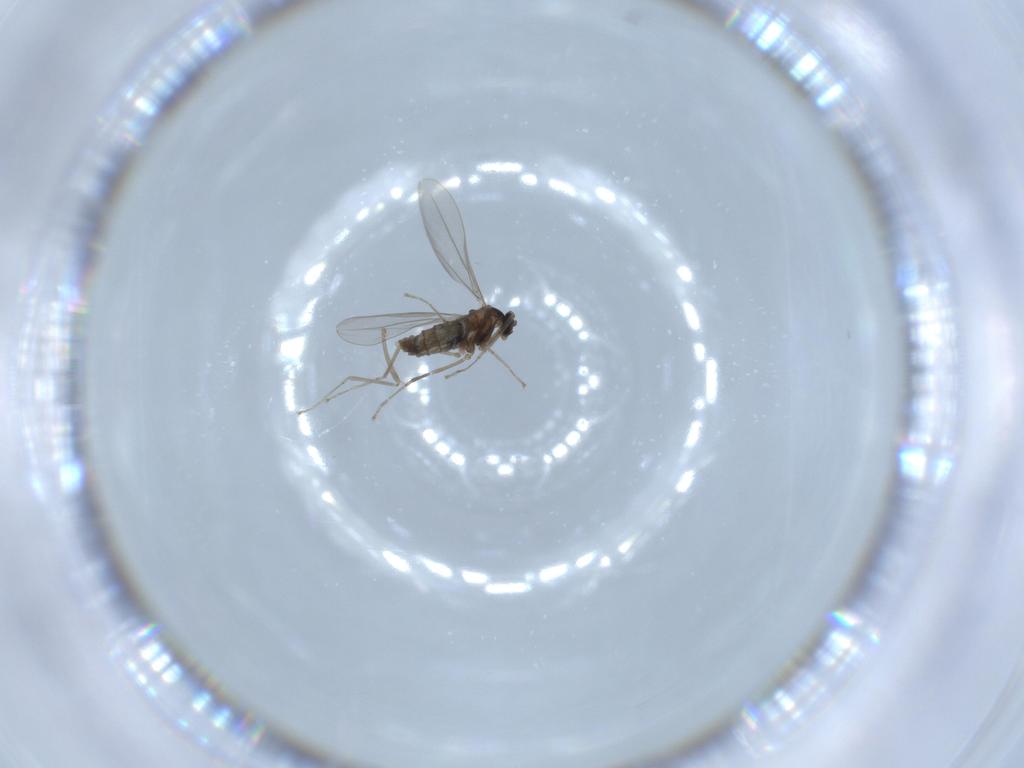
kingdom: Animalia
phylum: Arthropoda
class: Insecta
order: Diptera
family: Cecidomyiidae
